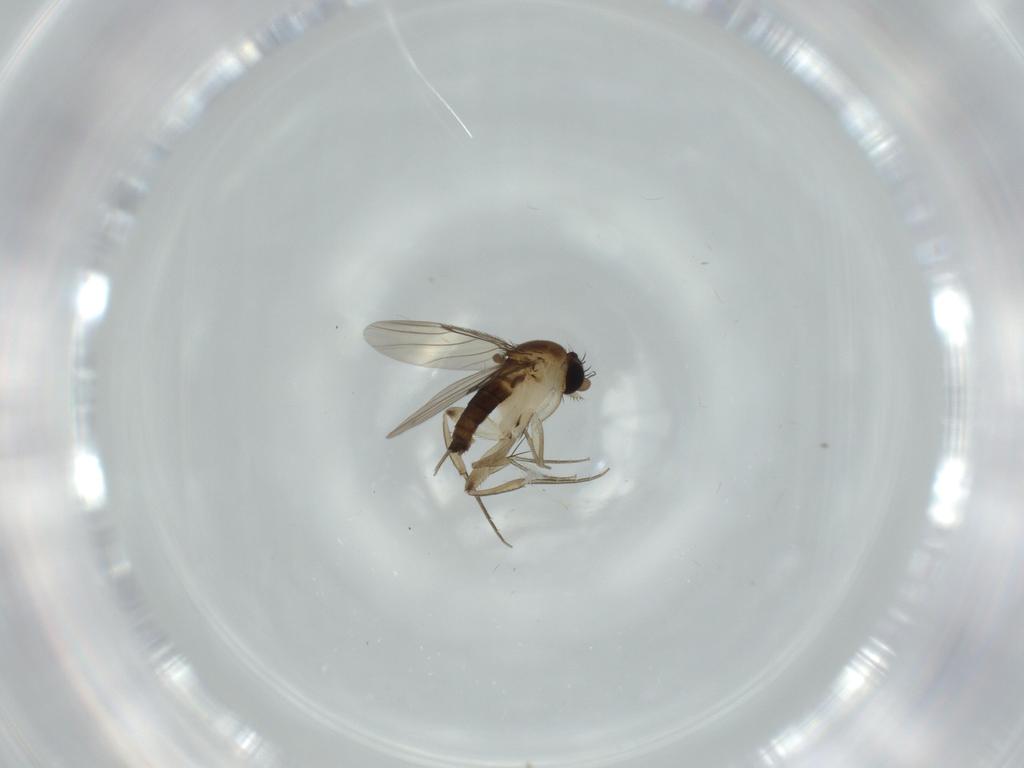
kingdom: Animalia
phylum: Arthropoda
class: Insecta
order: Diptera
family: Phoridae
